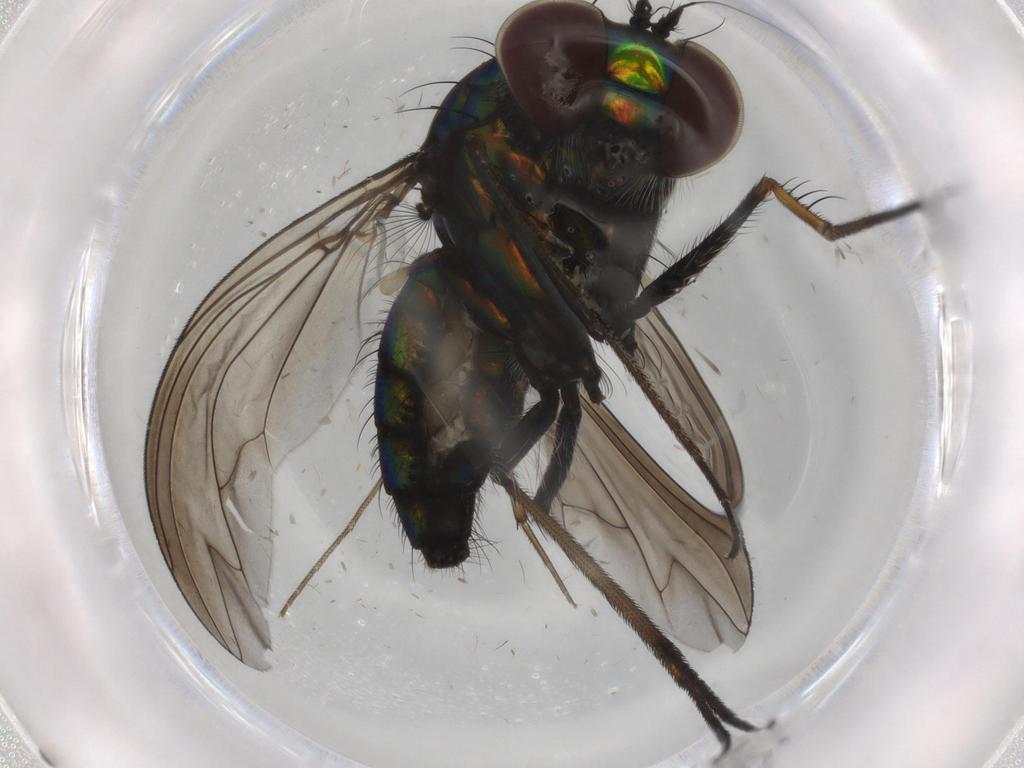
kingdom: Animalia
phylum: Arthropoda
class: Insecta
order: Diptera
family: Dolichopodidae
